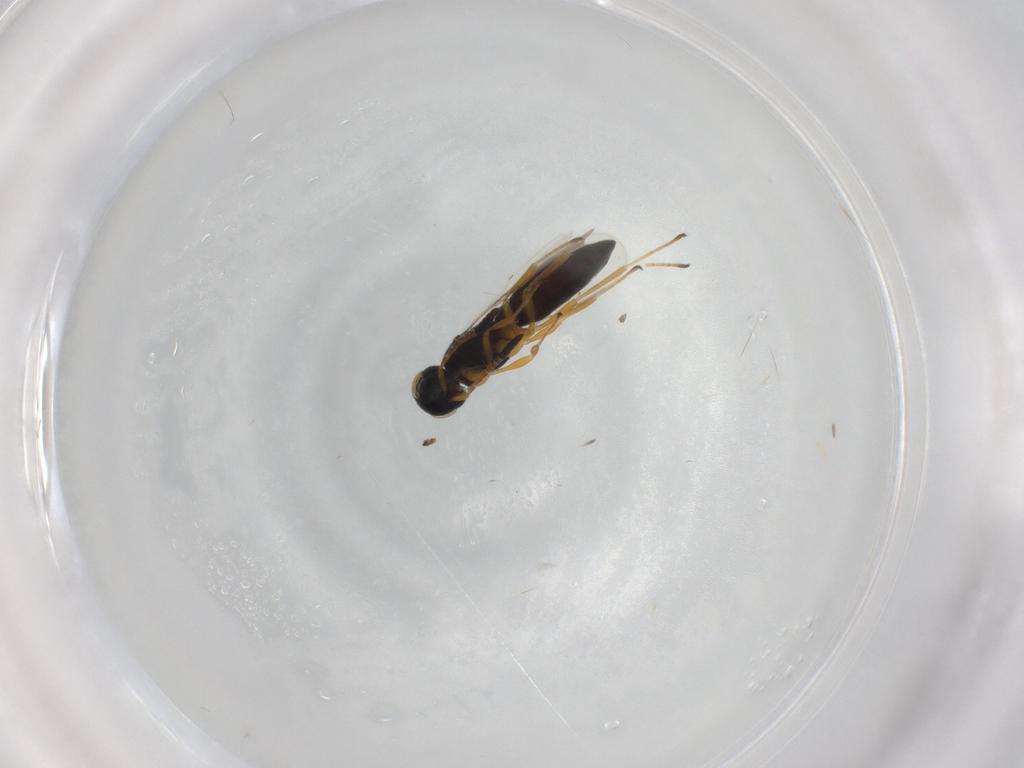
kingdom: Animalia
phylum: Arthropoda
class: Insecta
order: Hymenoptera
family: Scelionidae
